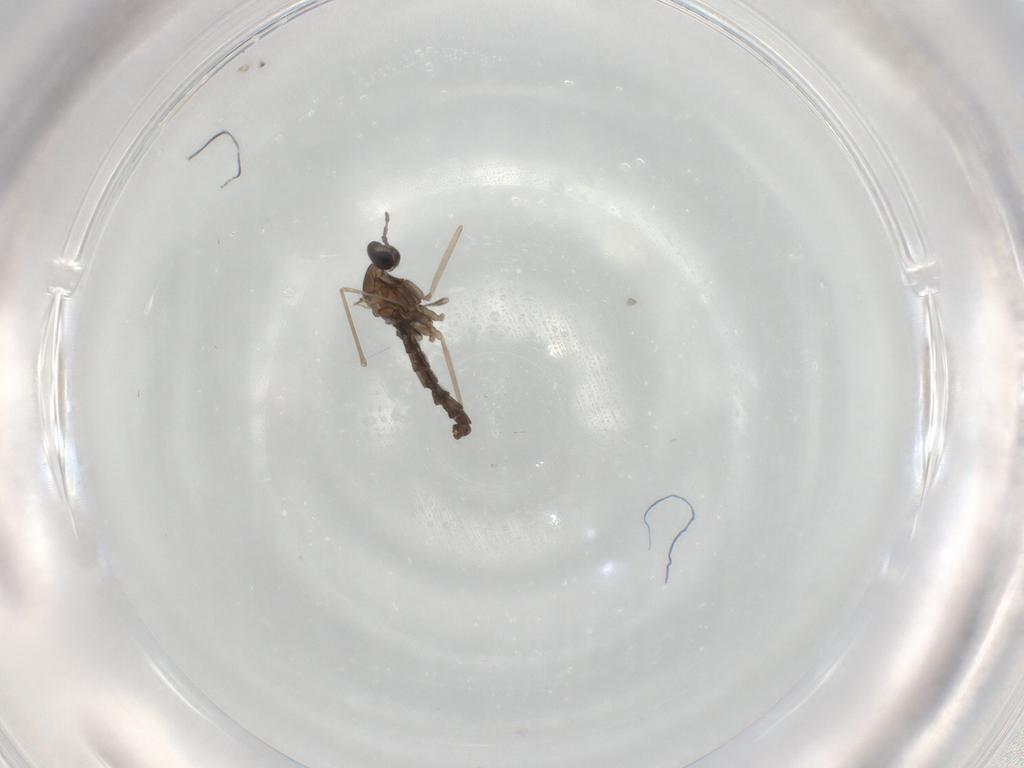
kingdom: Animalia
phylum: Arthropoda
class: Insecta
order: Diptera
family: Cecidomyiidae
